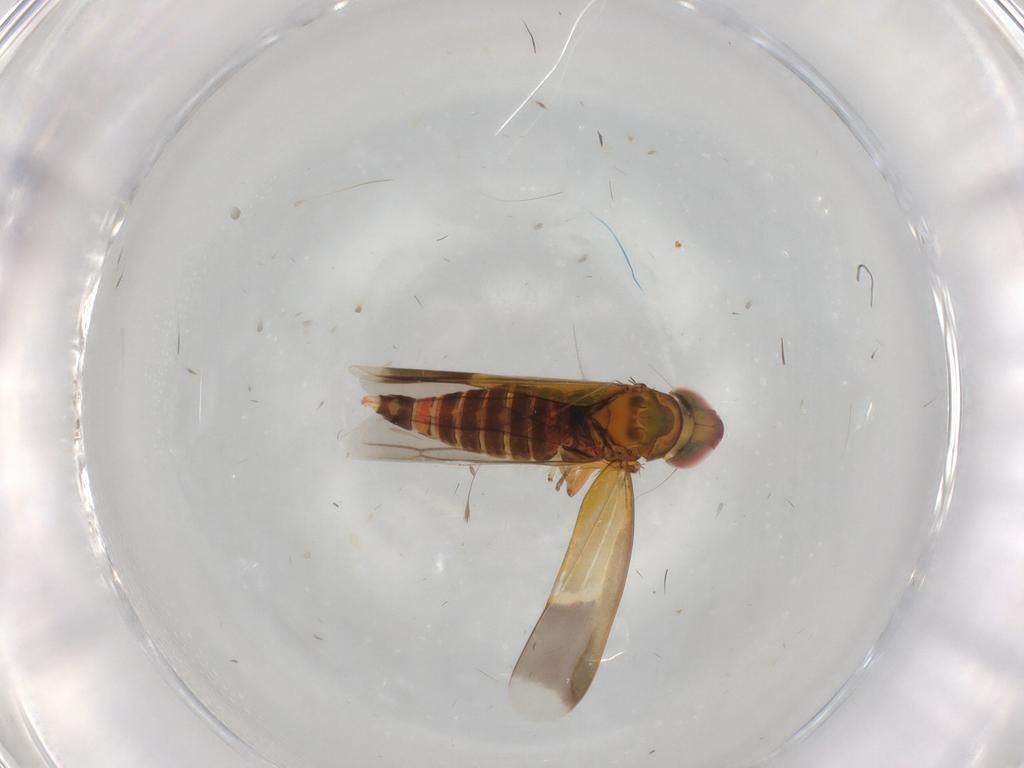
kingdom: Animalia
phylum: Arthropoda
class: Insecta
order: Hemiptera
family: Cicadellidae
